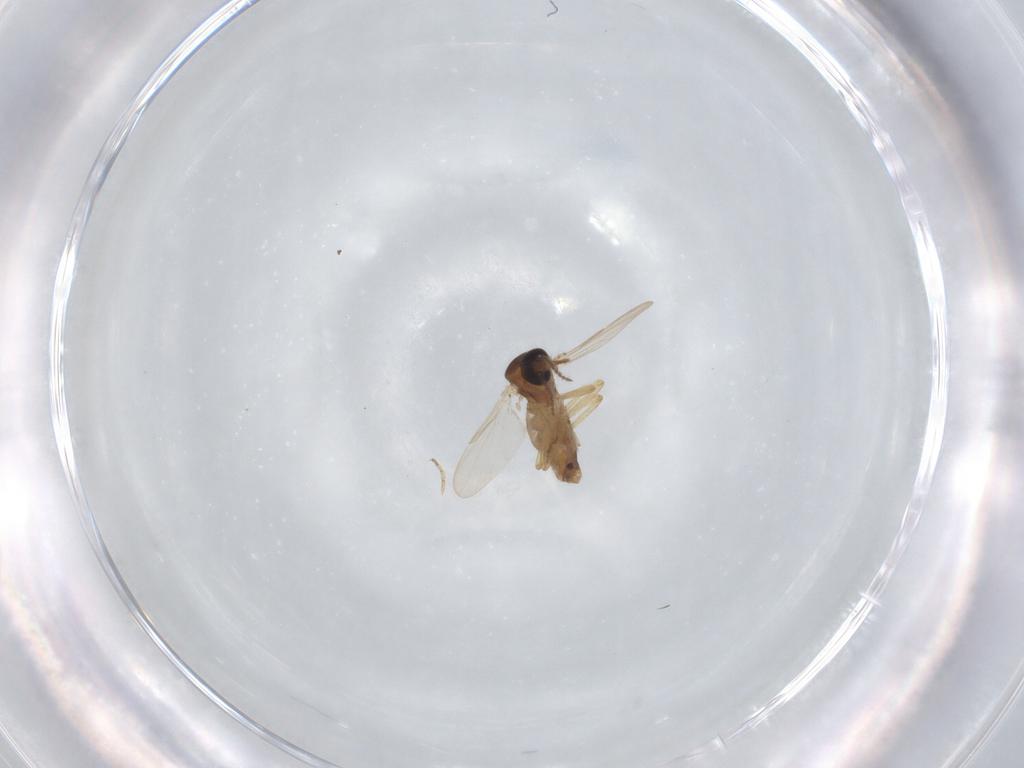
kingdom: Animalia
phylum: Arthropoda
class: Insecta
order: Diptera
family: Ceratopogonidae
